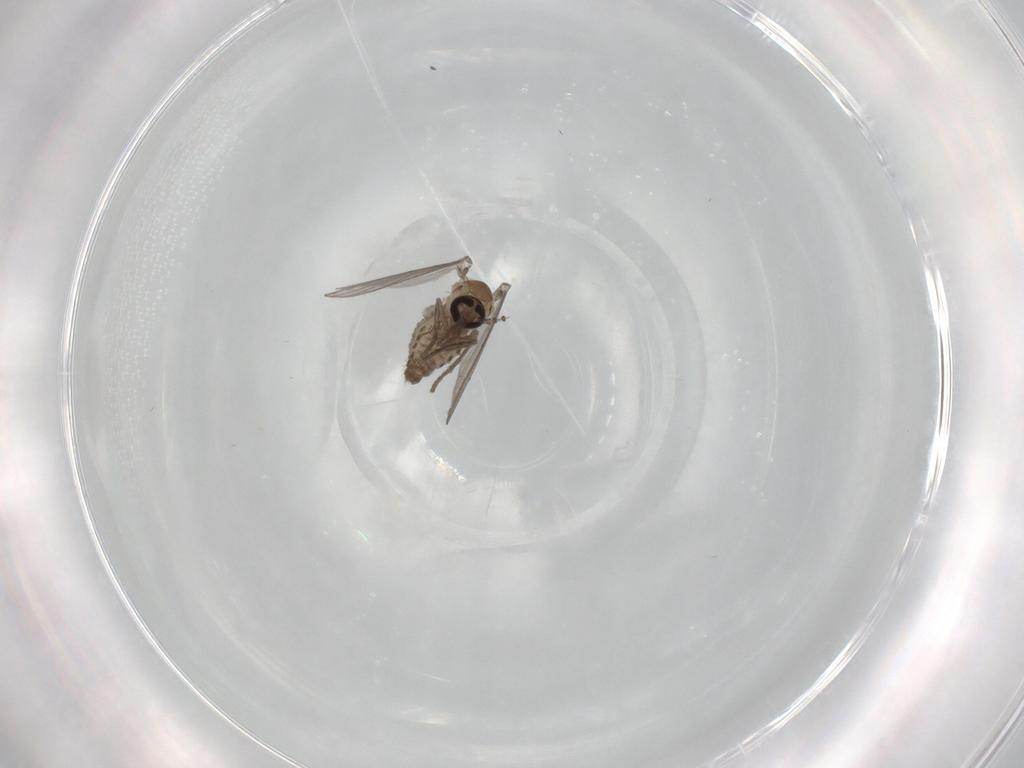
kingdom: Animalia
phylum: Arthropoda
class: Insecta
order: Diptera
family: Psychodidae
